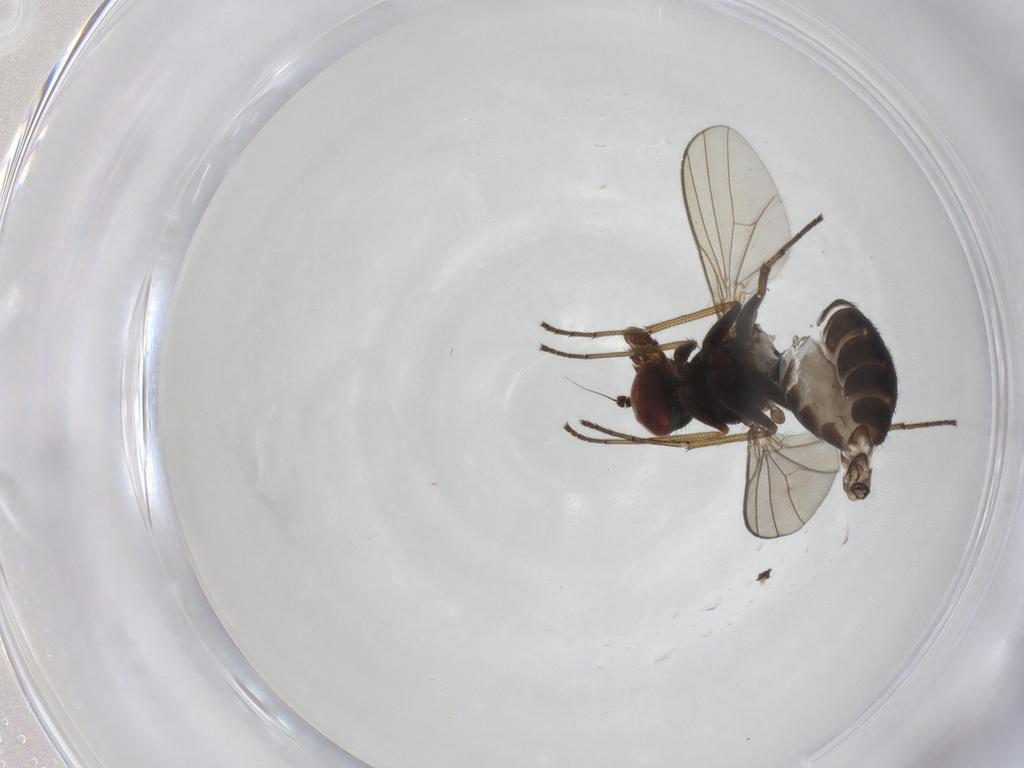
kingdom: Animalia
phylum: Arthropoda
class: Insecta
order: Diptera
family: Dolichopodidae
